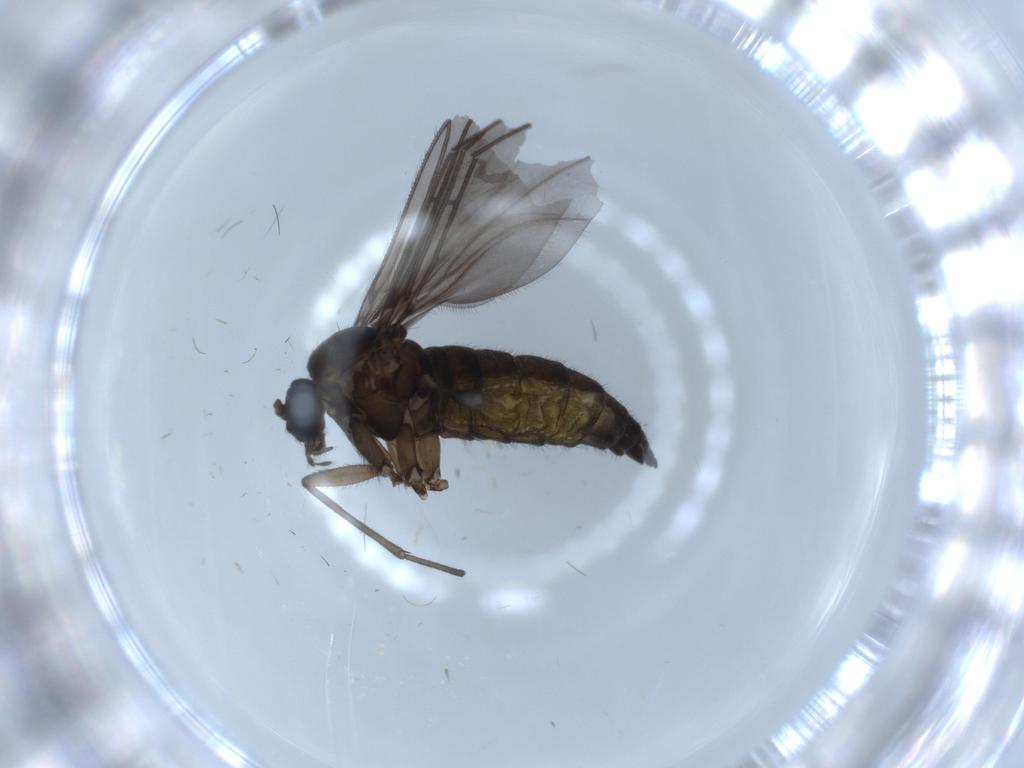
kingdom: Animalia
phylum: Arthropoda
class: Insecta
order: Diptera
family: Sciaridae
